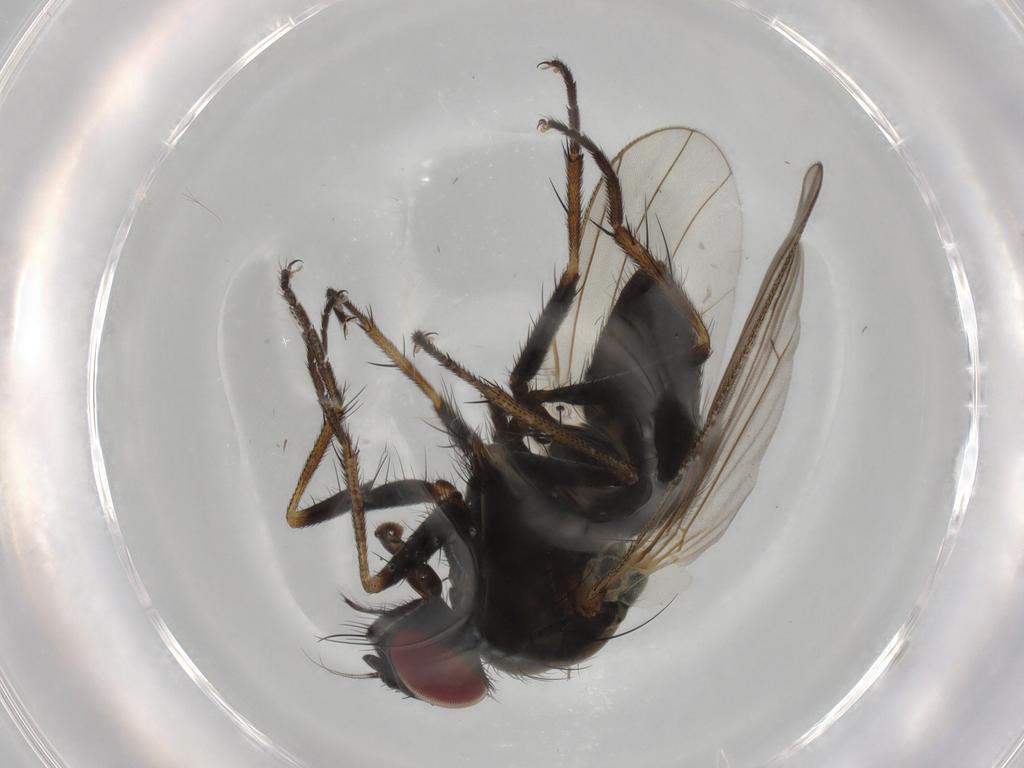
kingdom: Animalia
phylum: Arthropoda
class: Insecta
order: Diptera
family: Muscidae
